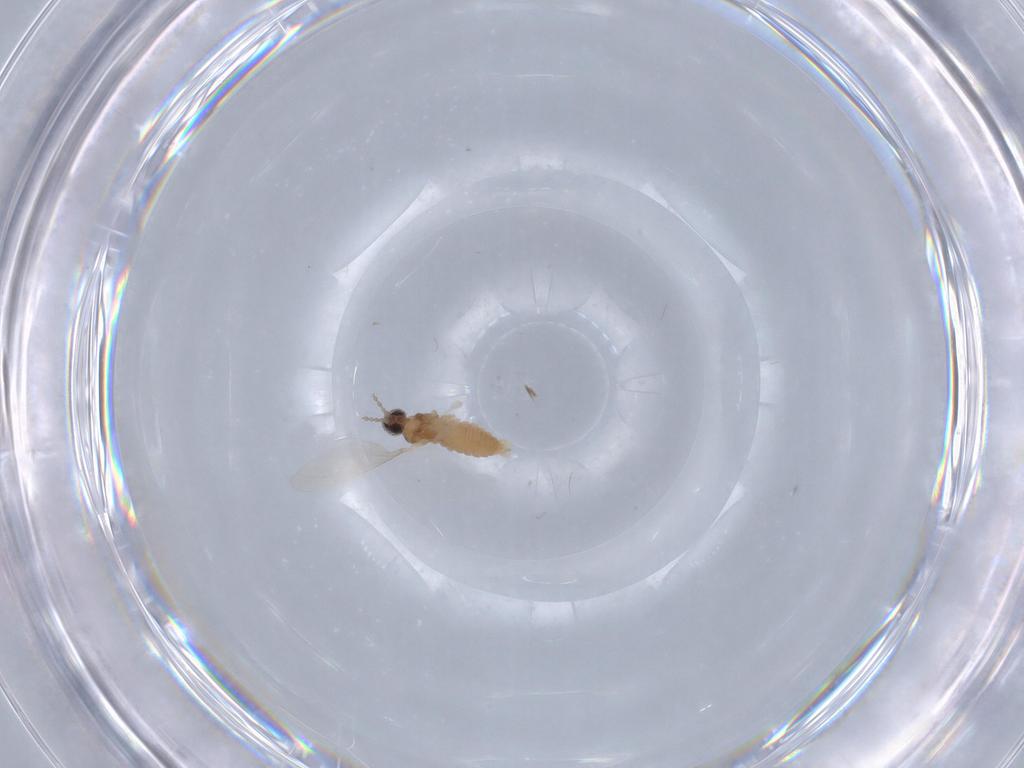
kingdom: Animalia
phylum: Arthropoda
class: Insecta
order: Diptera
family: Cecidomyiidae
